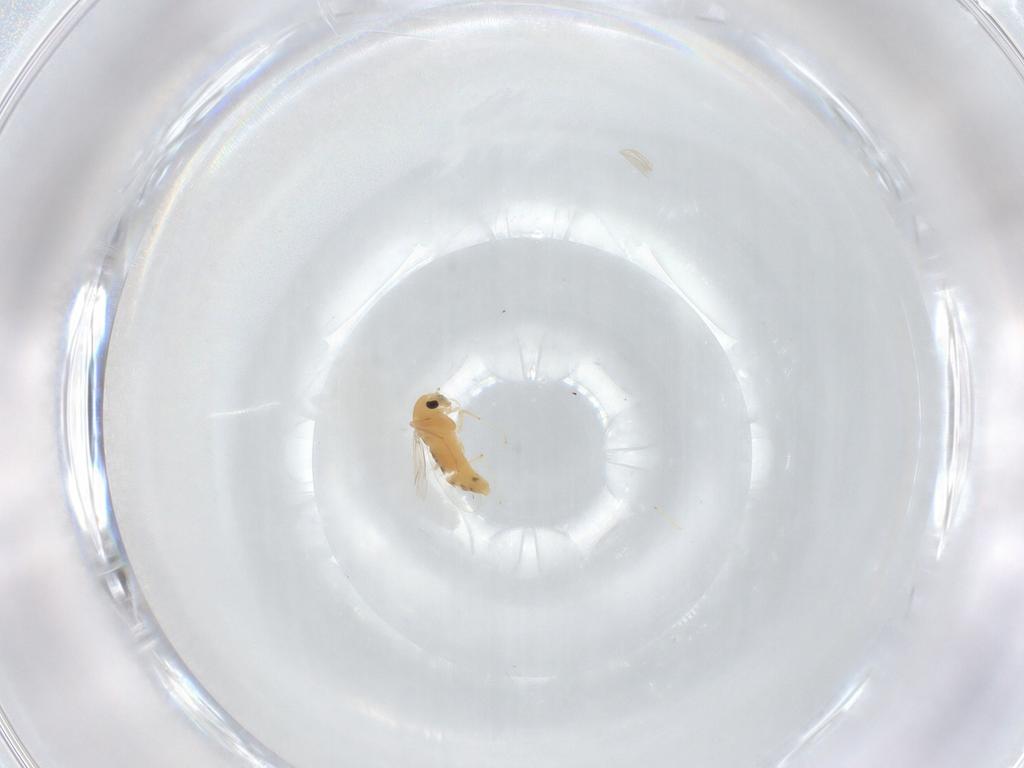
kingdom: Animalia
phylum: Arthropoda
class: Insecta
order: Diptera
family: Chironomidae
